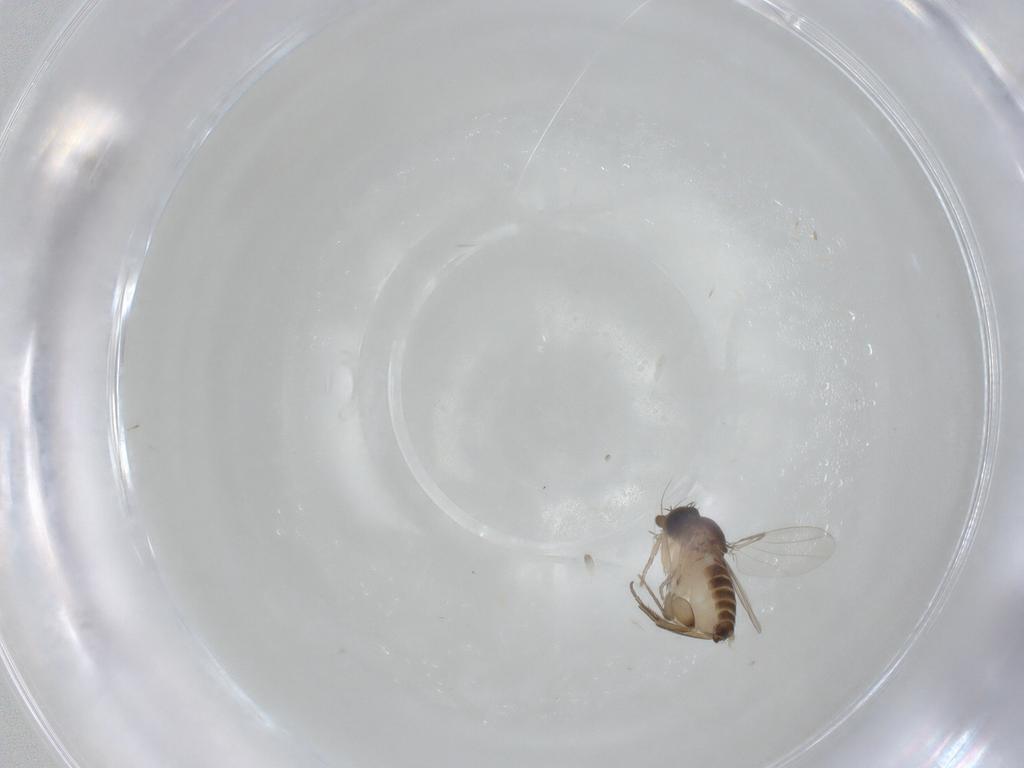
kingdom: Animalia
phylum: Arthropoda
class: Insecta
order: Diptera
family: Phoridae
